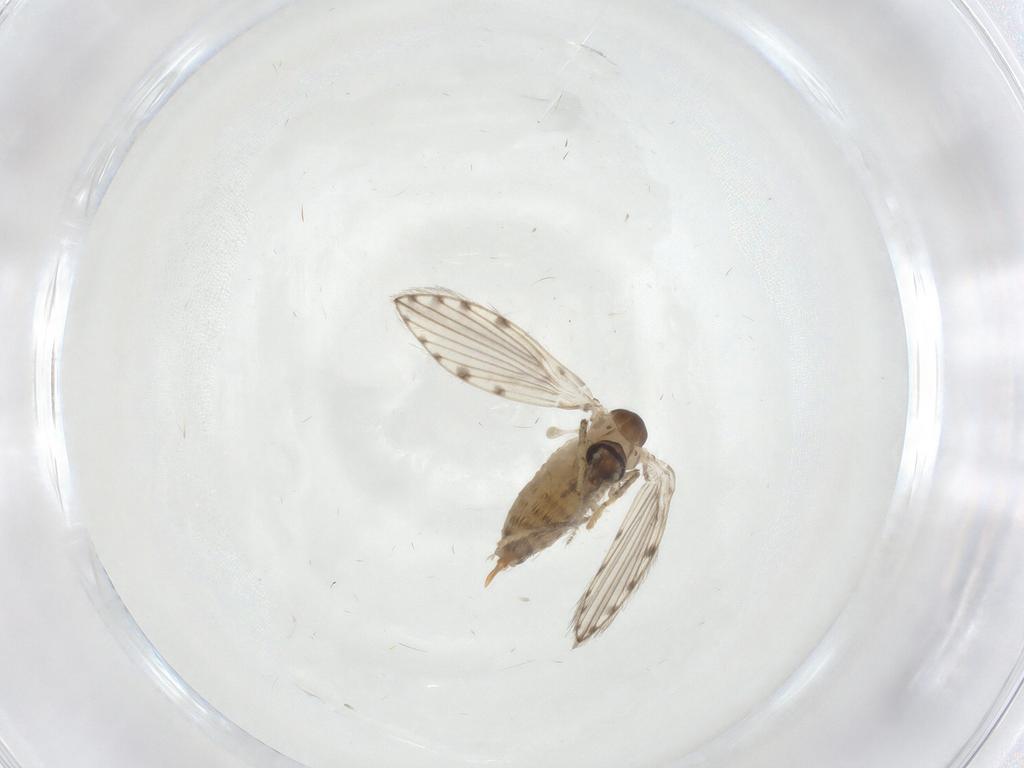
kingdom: Animalia
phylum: Arthropoda
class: Insecta
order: Diptera
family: Psychodidae
